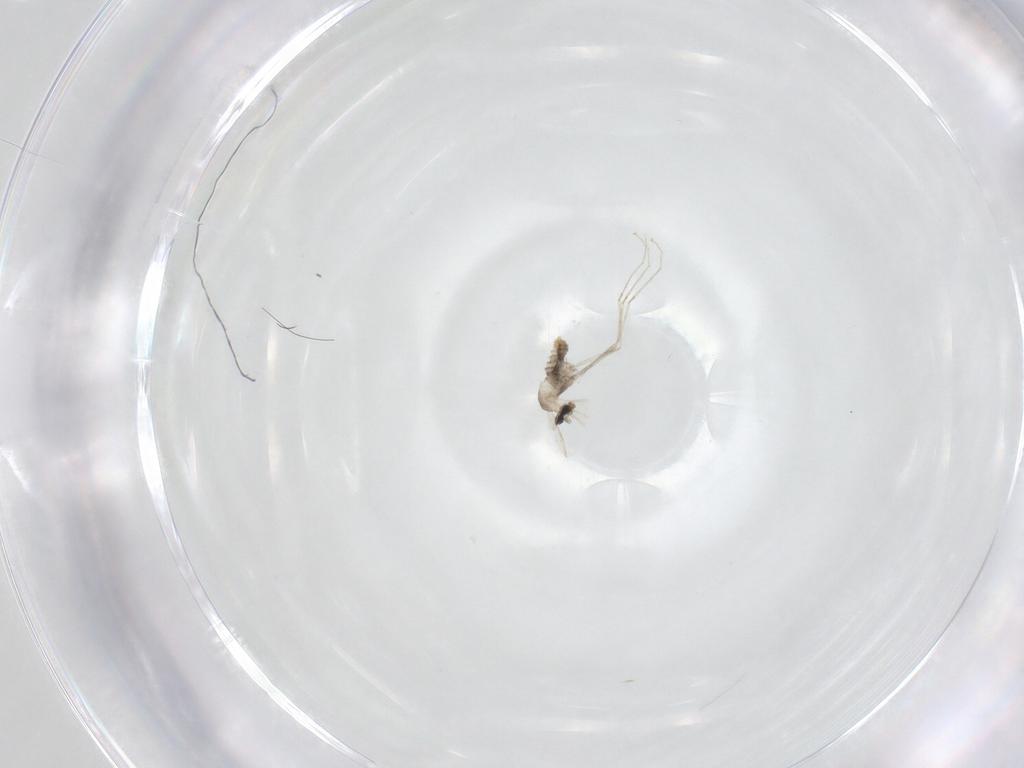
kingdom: Animalia
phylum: Arthropoda
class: Insecta
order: Diptera
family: Cecidomyiidae
